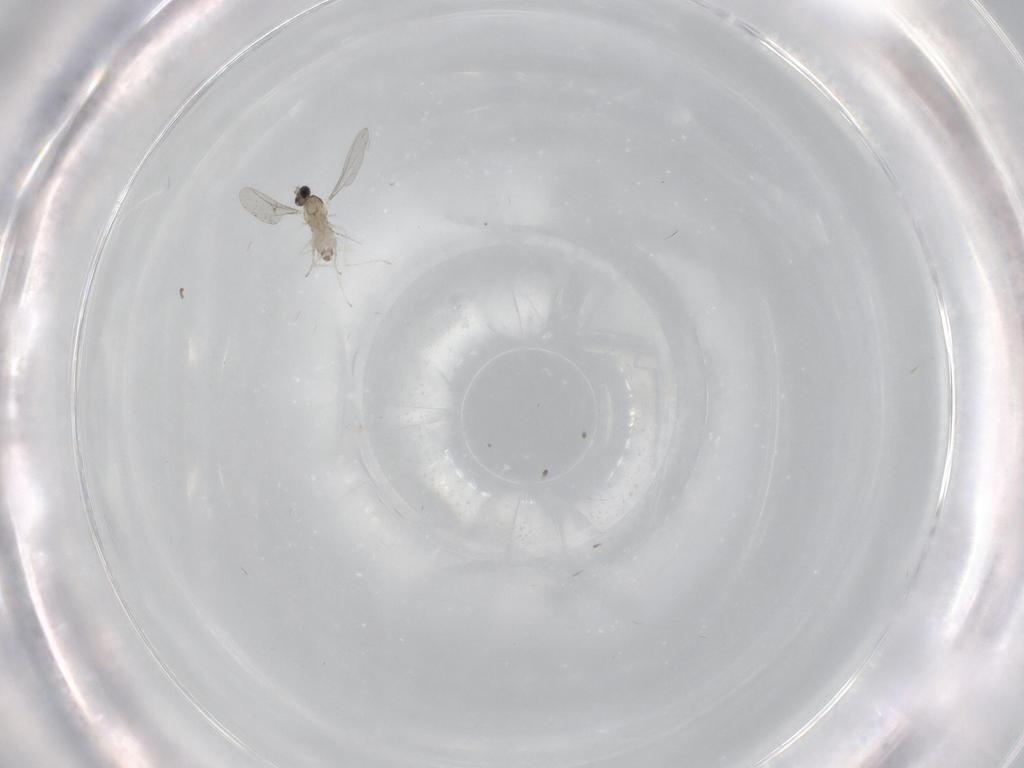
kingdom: Animalia
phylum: Arthropoda
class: Insecta
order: Diptera
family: Cecidomyiidae
